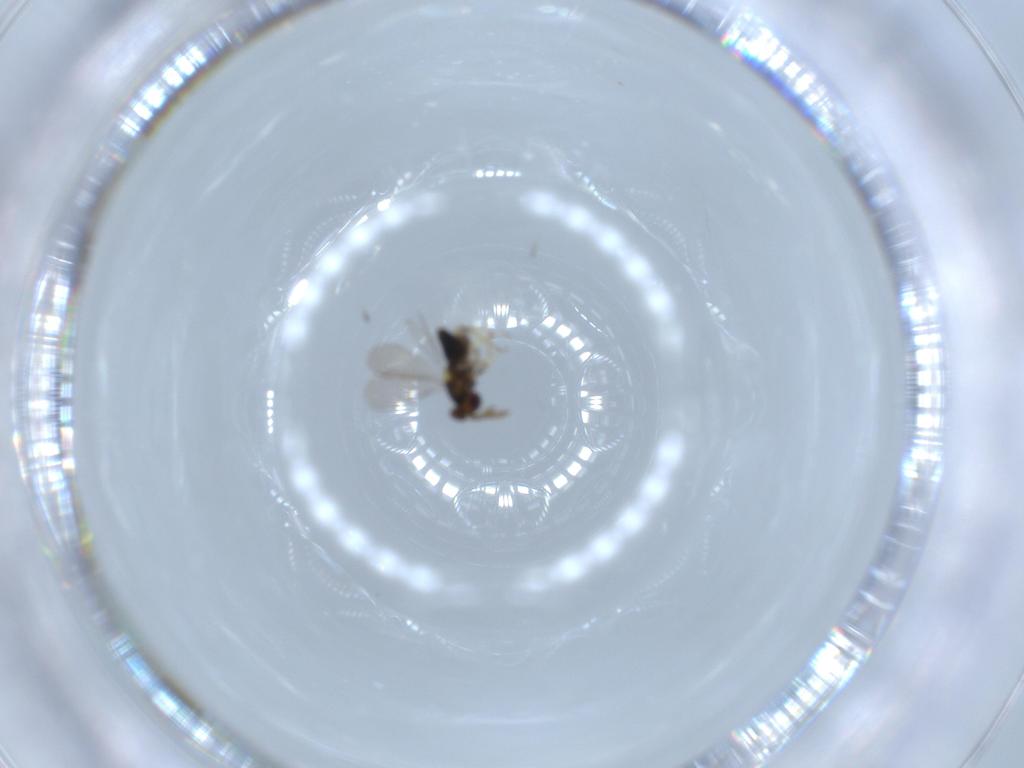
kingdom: Animalia
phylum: Arthropoda
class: Insecta
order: Hymenoptera
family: Aphelinidae
